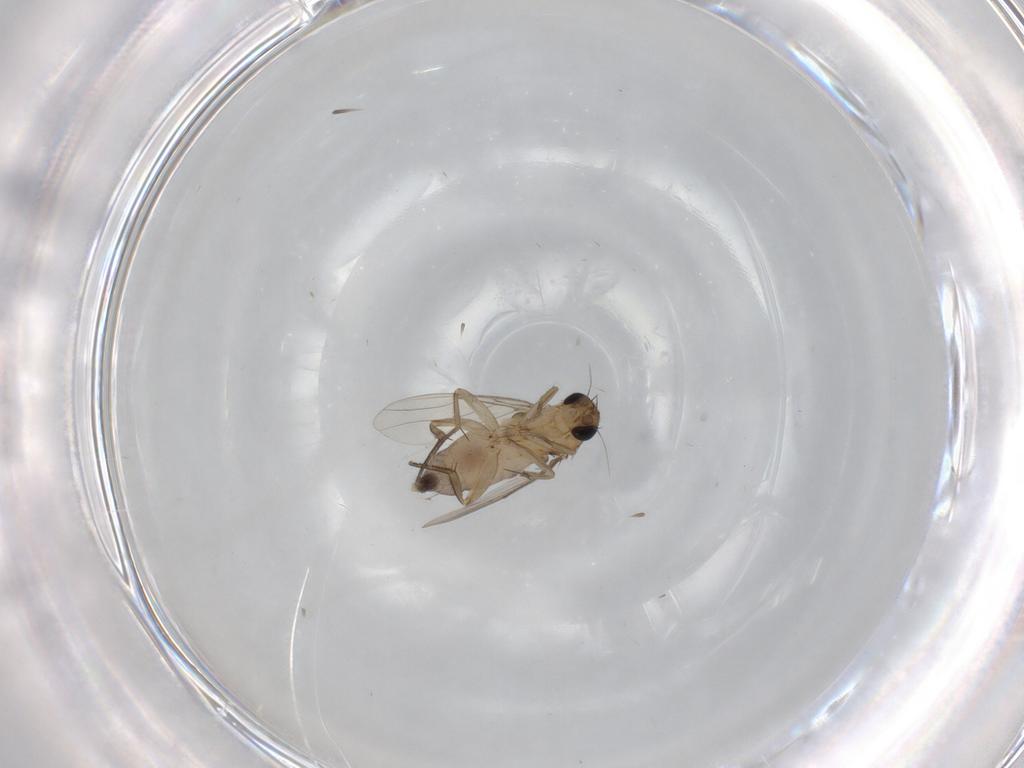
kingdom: Animalia
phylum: Arthropoda
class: Insecta
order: Diptera
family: Phoridae
